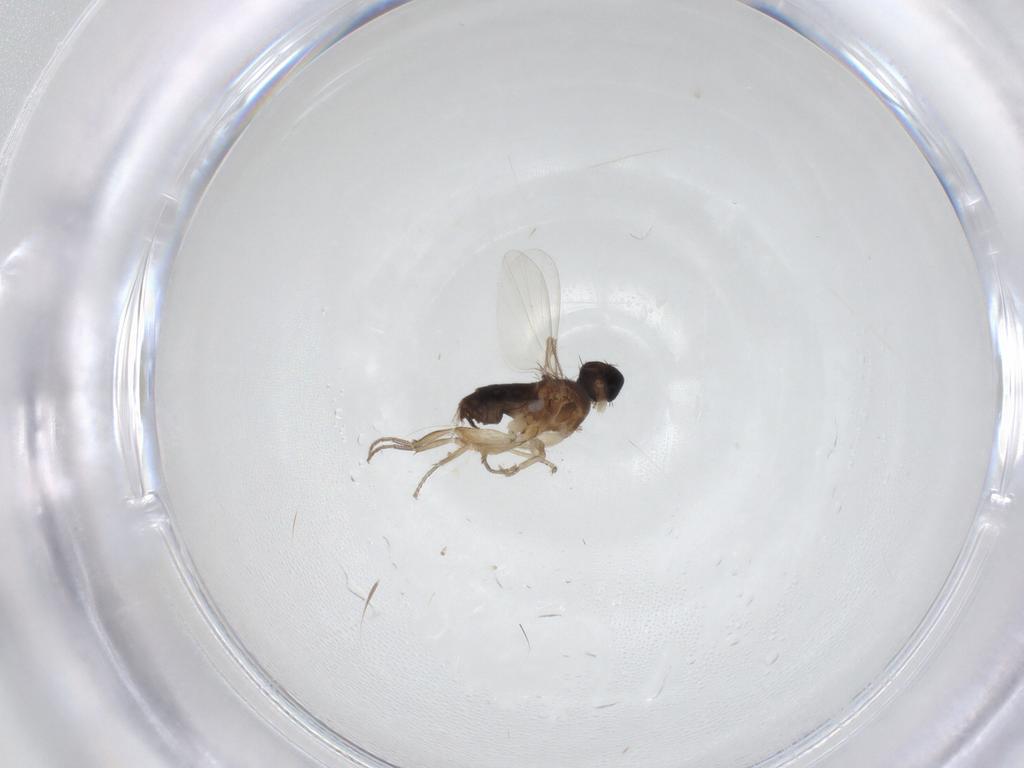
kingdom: Animalia
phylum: Arthropoda
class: Insecta
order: Diptera
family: Phoridae
